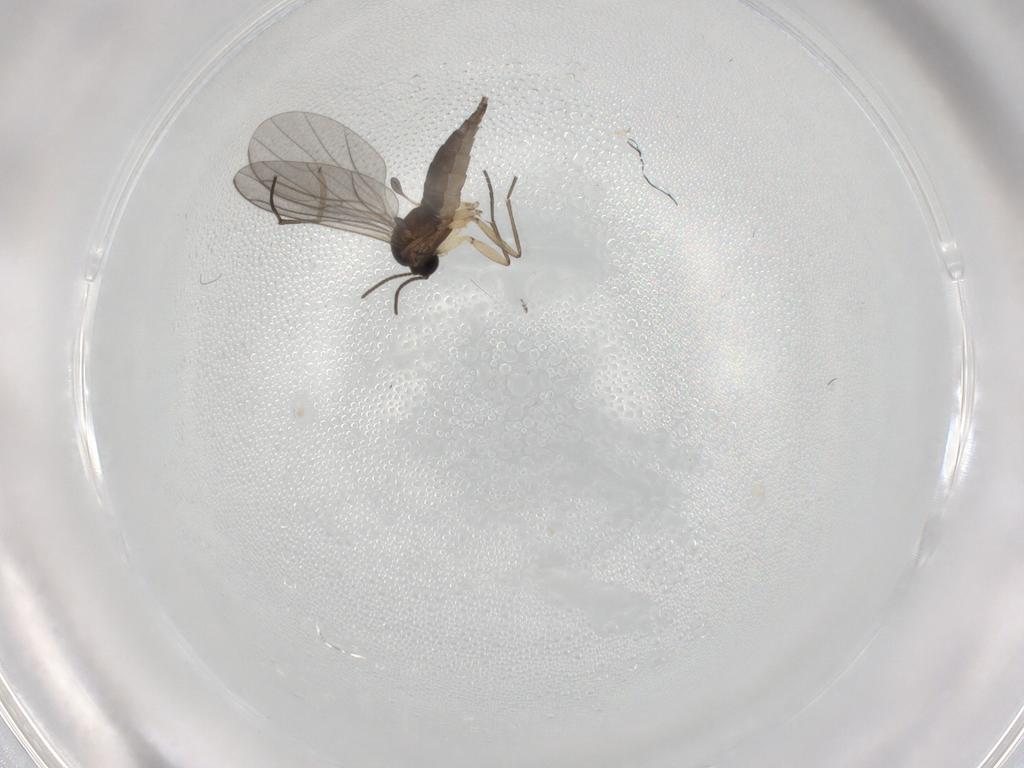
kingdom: Animalia
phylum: Arthropoda
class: Insecta
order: Diptera
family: Sciaridae
